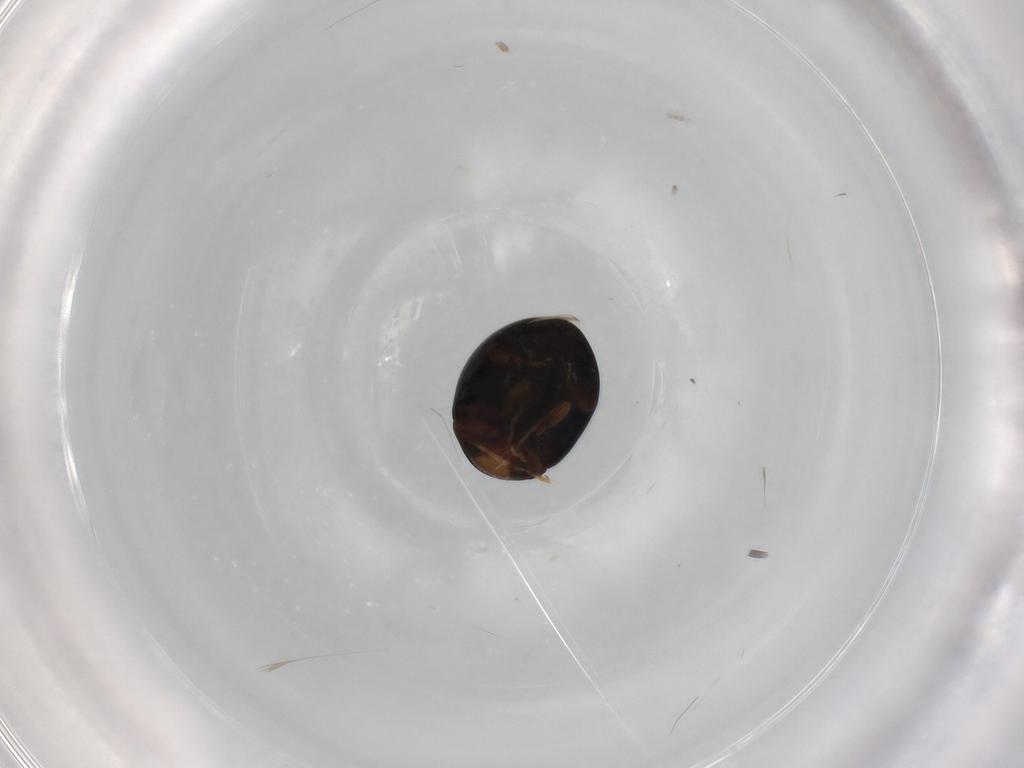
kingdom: Animalia
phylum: Arthropoda
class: Insecta
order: Coleoptera
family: Coccinellidae
